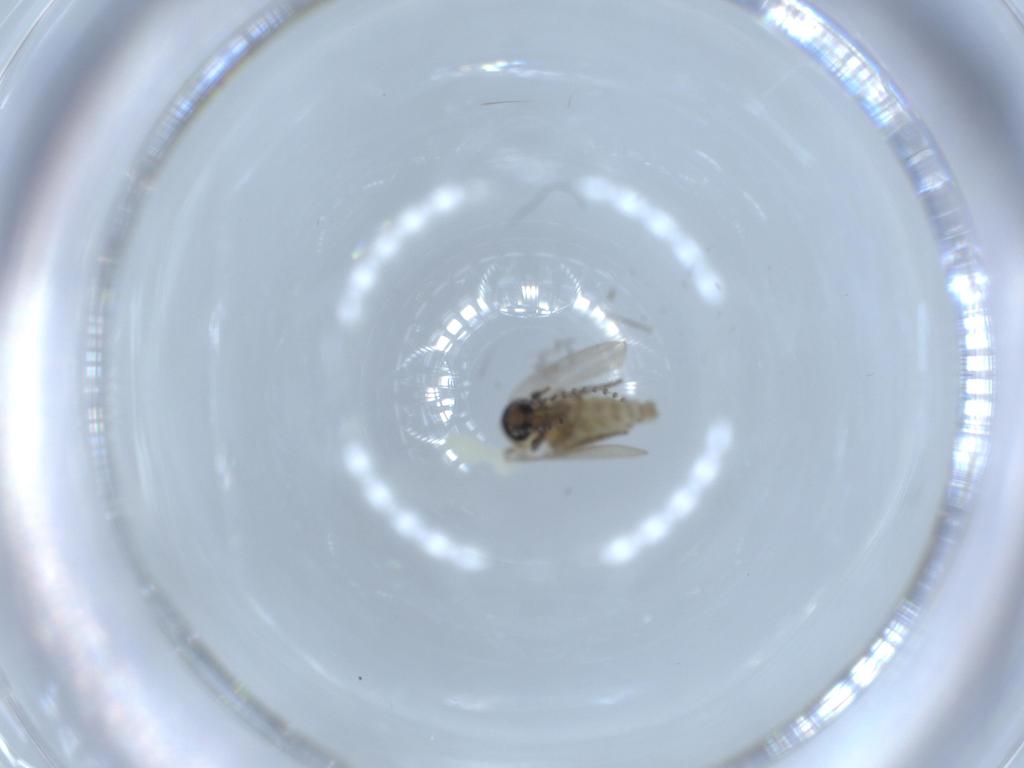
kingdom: Animalia
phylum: Arthropoda
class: Insecta
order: Diptera
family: Psychodidae
